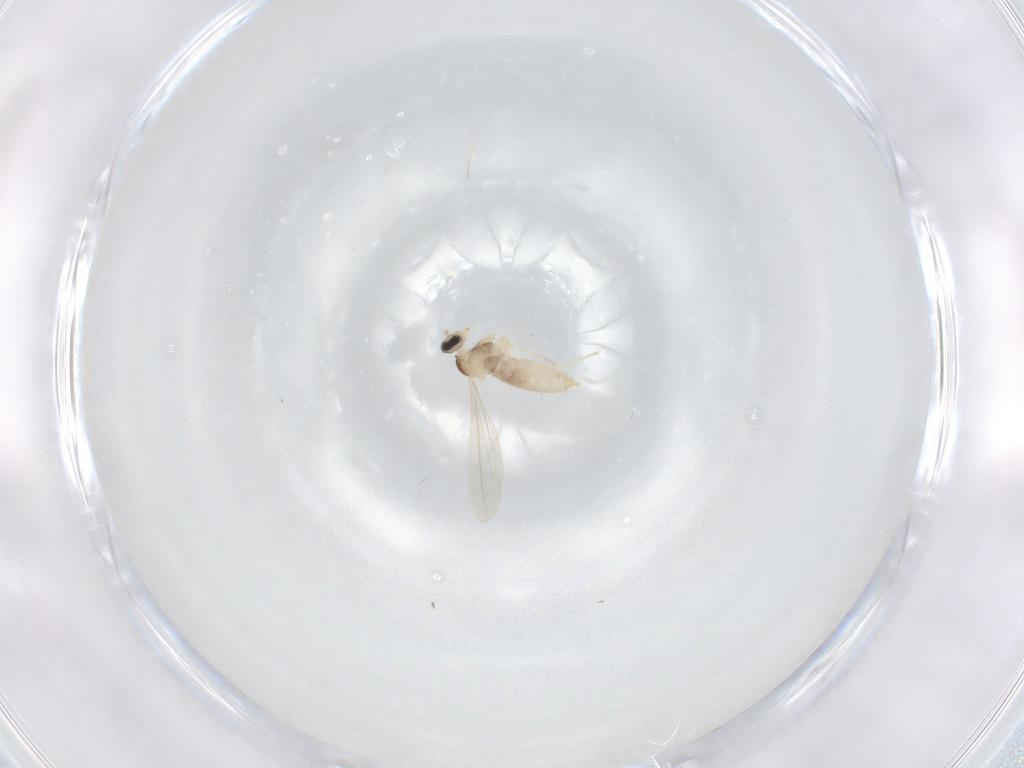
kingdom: Animalia
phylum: Arthropoda
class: Insecta
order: Diptera
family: Cecidomyiidae
